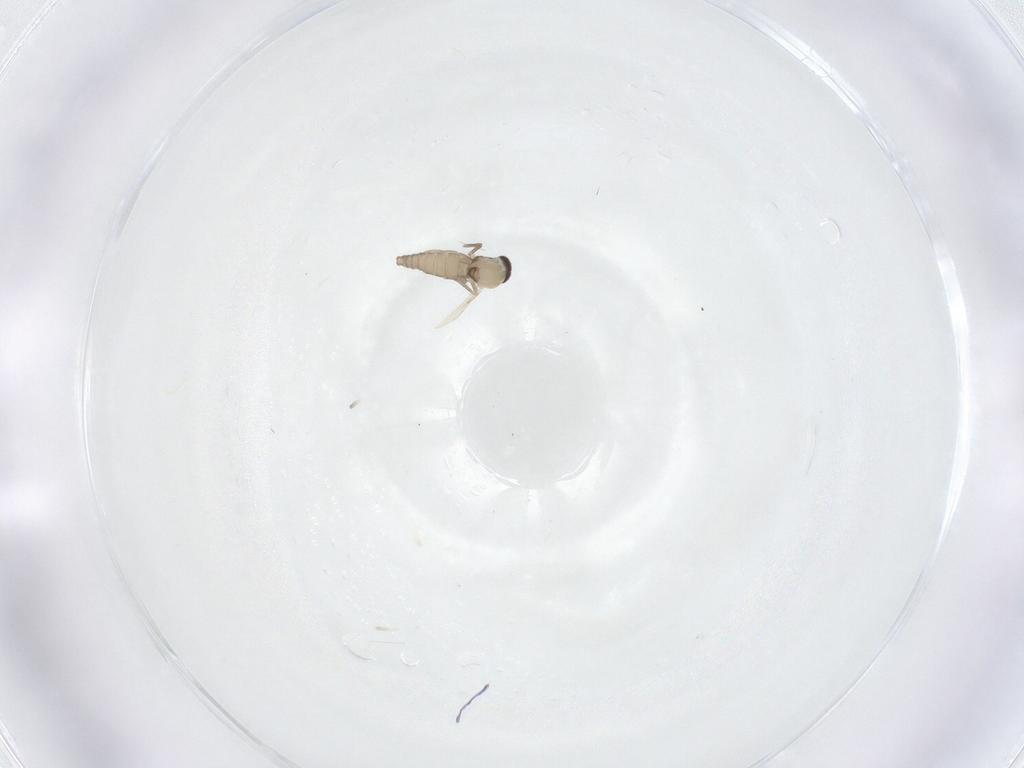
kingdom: Animalia
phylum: Arthropoda
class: Insecta
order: Diptera
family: Ceratopogonidae
